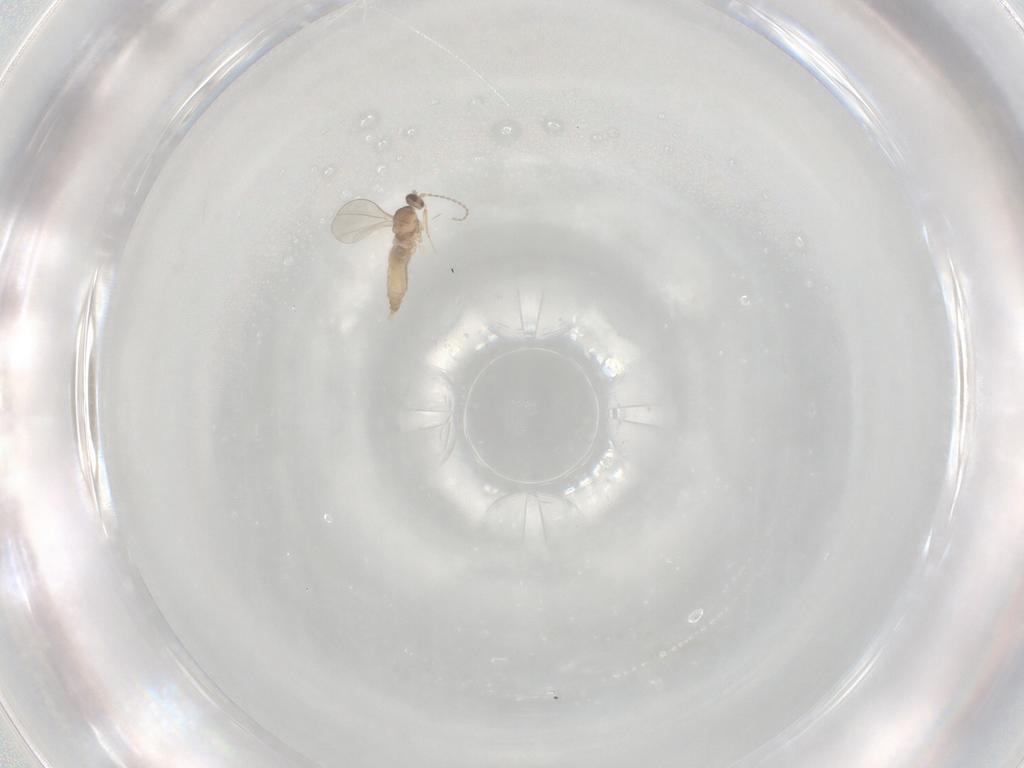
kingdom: Animalia
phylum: Arthropoda
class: Insecta
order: Diptera
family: Cecidomyiidae
